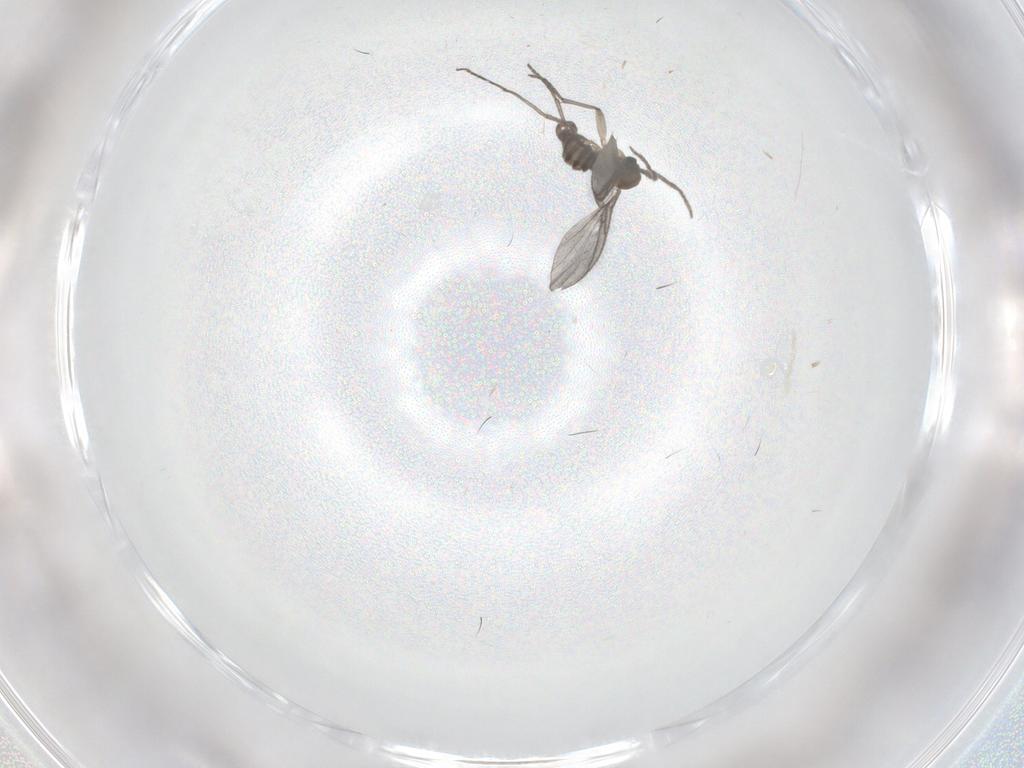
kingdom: Animalia
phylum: Arthropoda
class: Insecta
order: Diptera
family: Sciaridae
